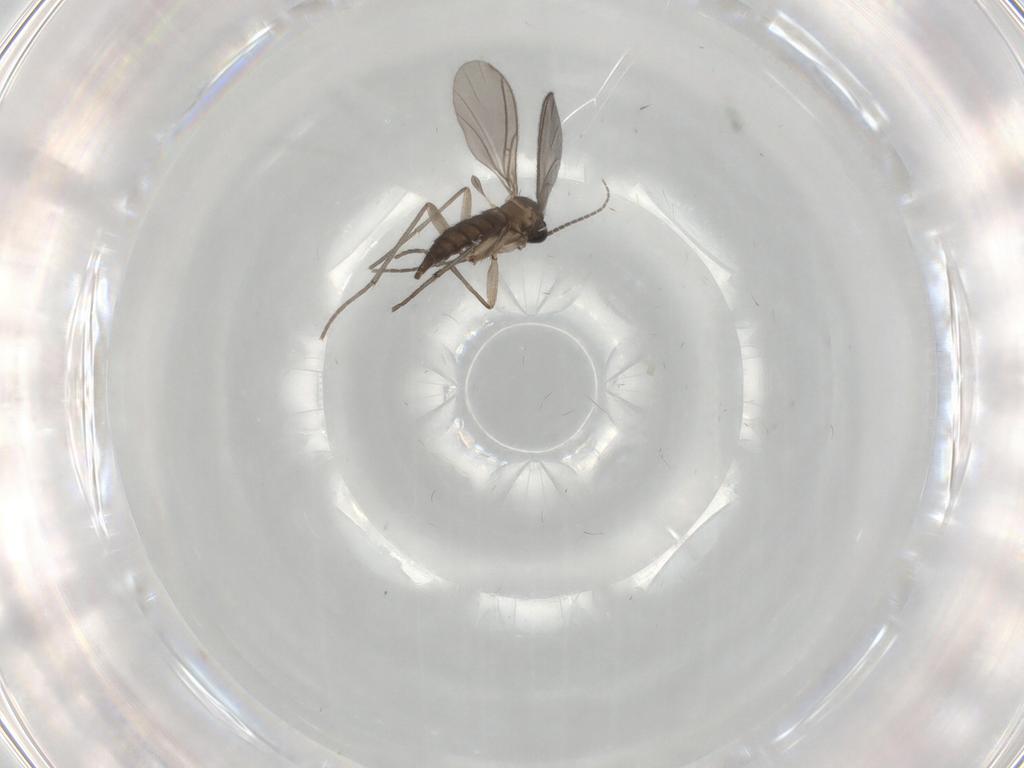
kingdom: Animalia
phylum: Arthropoda
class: Insecta
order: Diptera
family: Sciaridae
